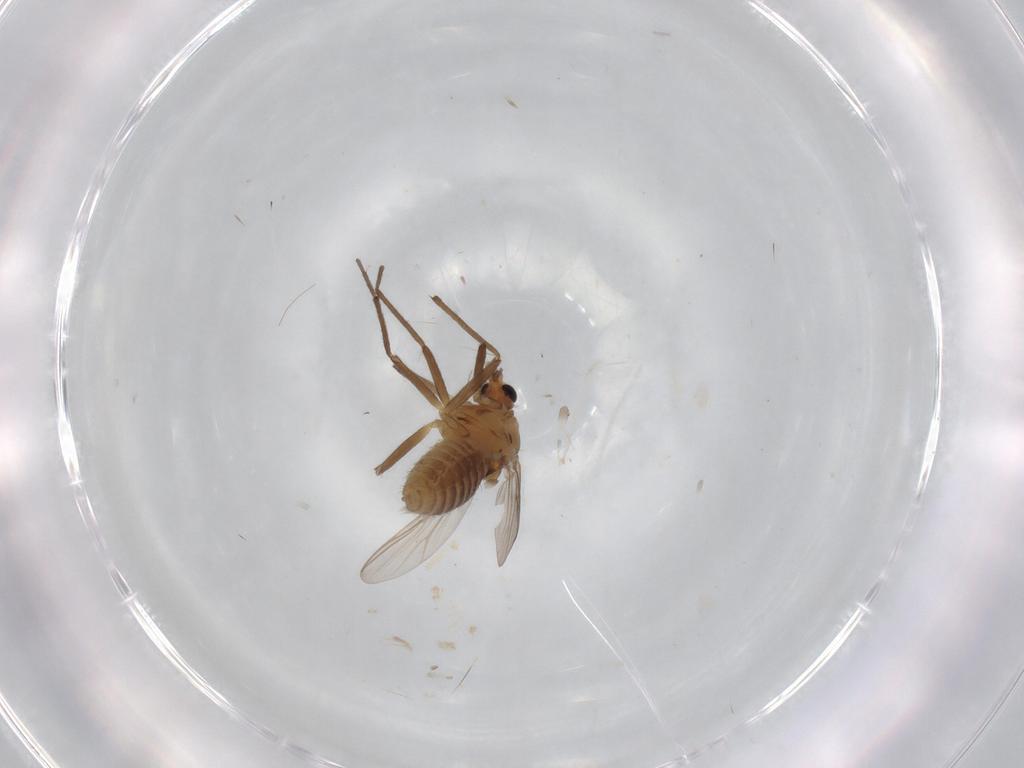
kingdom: Animalia
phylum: Arthropoda
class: Insecta
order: Diptera
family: Chironomidae
